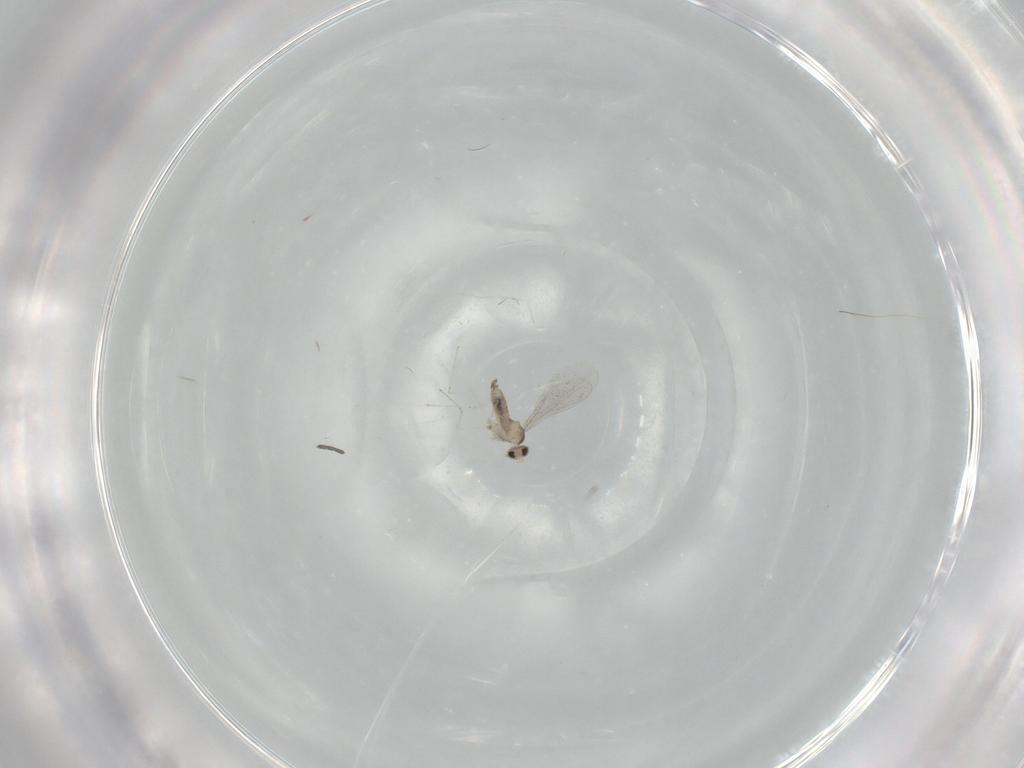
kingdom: Animalia
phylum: Arthropoda
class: Insecta
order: Diptera
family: Cecidomyiidae
